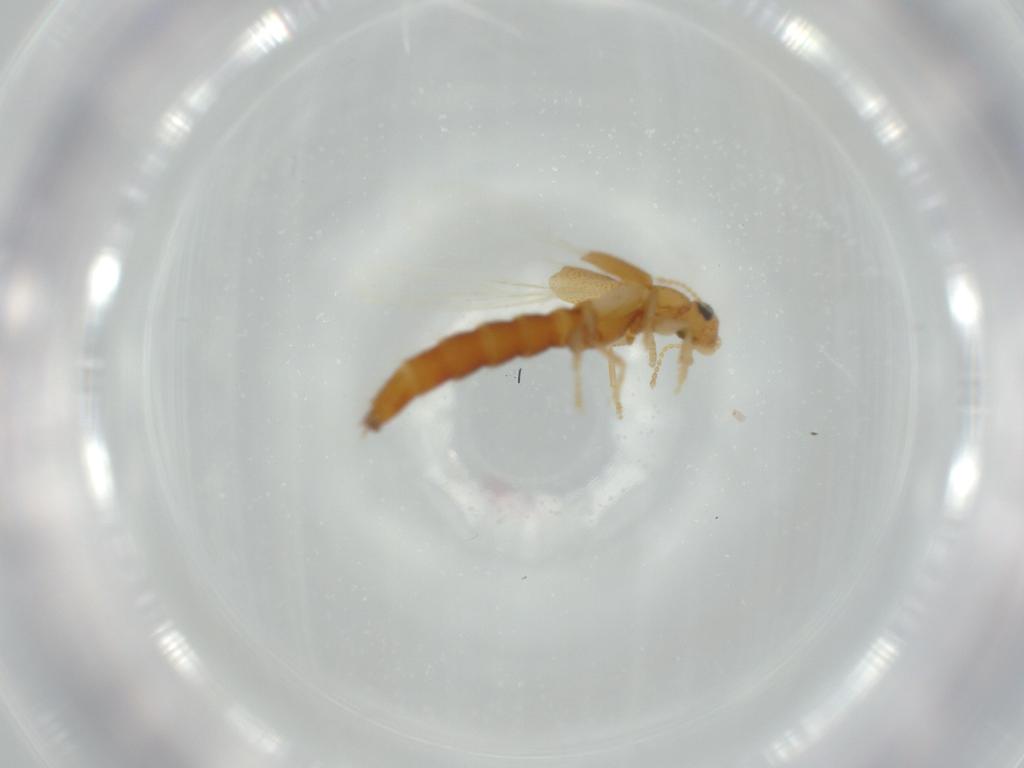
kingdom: Animalia
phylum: Arthropoda
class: Insecta
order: Coleoptera
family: Staphylinidae
